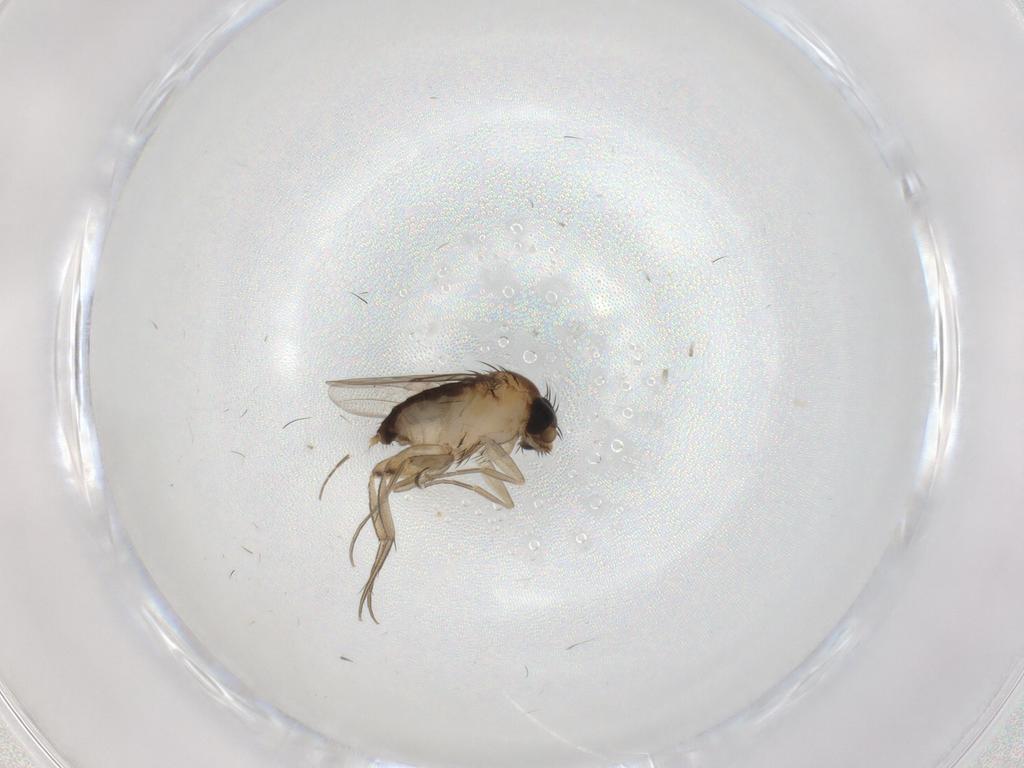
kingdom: Animalia
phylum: Arthropoda
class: Insecta
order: Diptera
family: Phoridae
